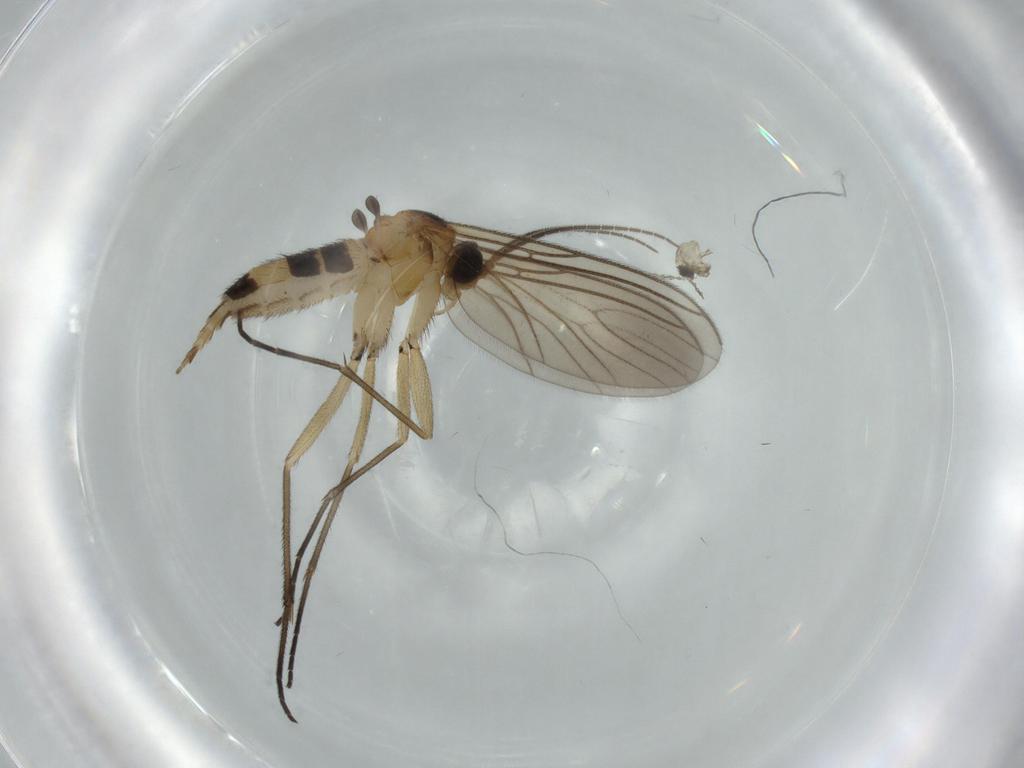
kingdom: Animalia
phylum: Arthropoda
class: Insecta
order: Diptera
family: Cecidomyiidae
